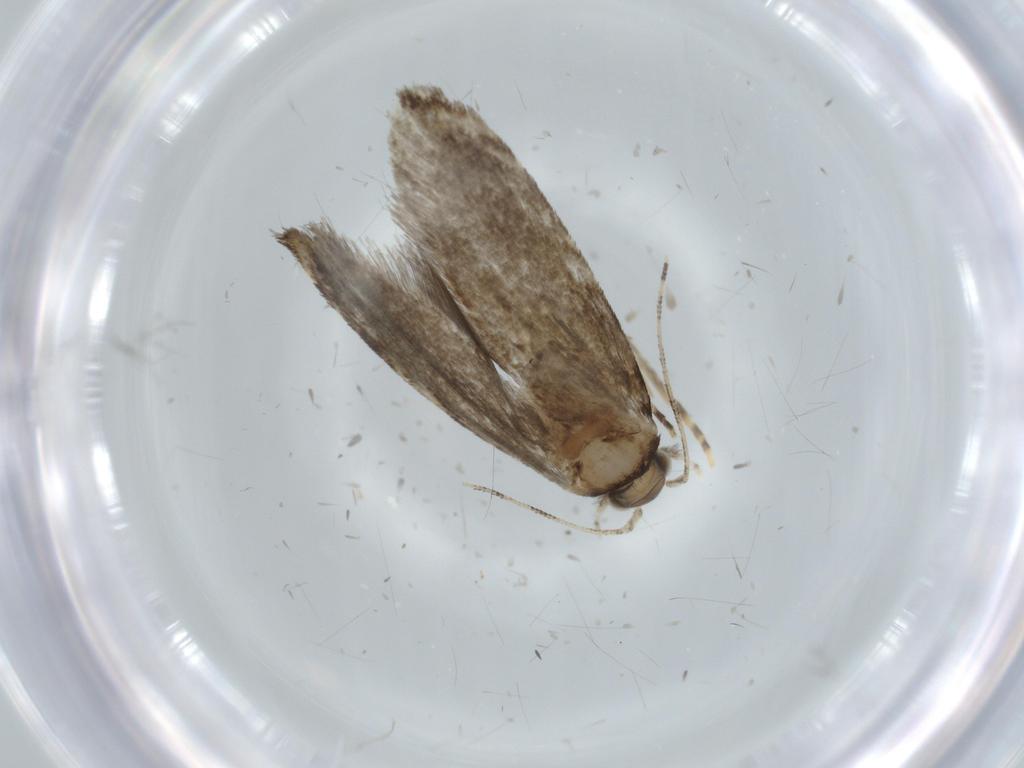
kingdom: Animalia
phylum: Arthropoda
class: Insecta
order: Lepidoptera
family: Tineidae
